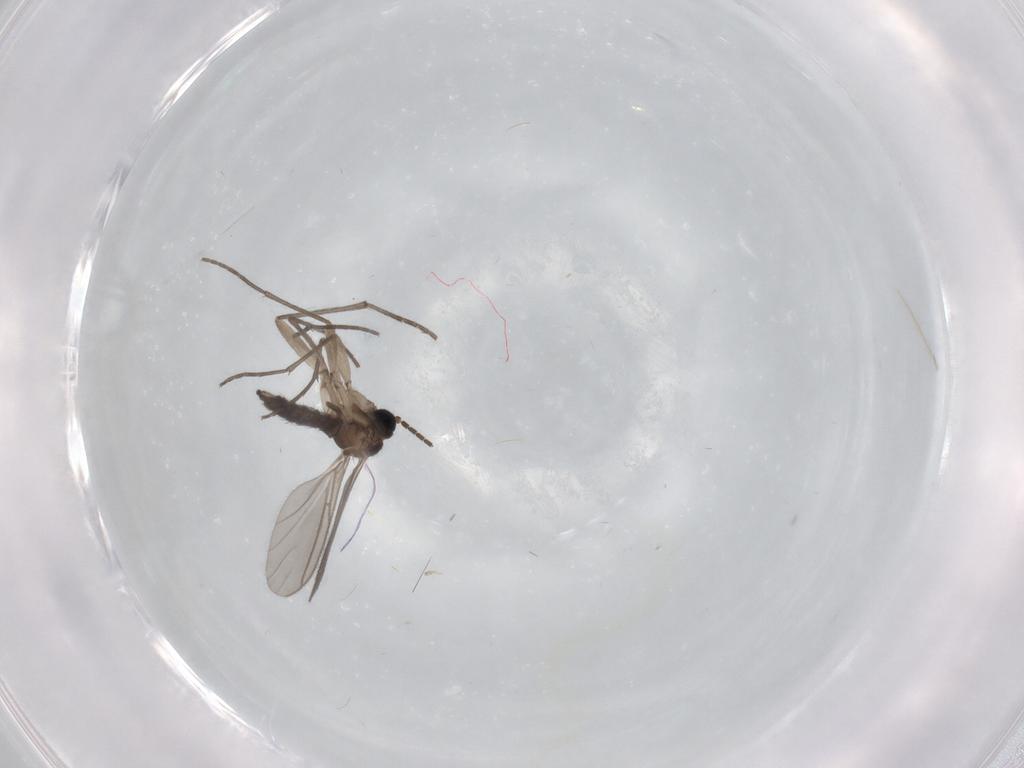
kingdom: Animalia
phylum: Arthropoda
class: Insecta
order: Diptera
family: Sciaridae
